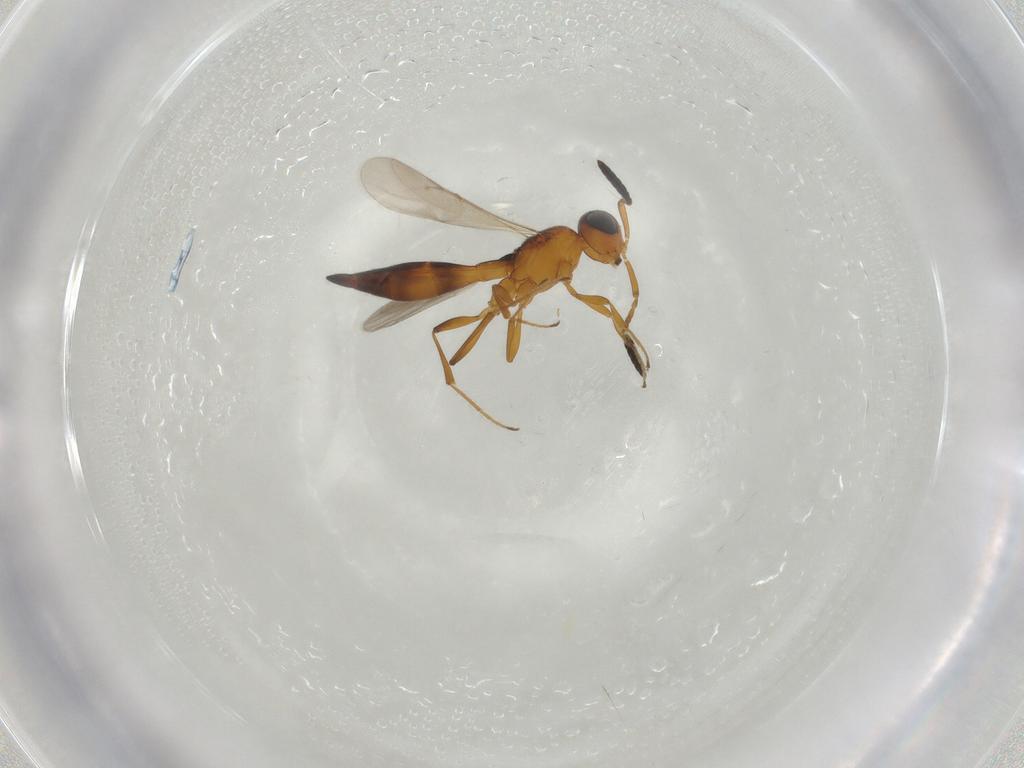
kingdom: Animalia
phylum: Arthropoda
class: Insecta
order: Hymenoptera
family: Scelionidae
